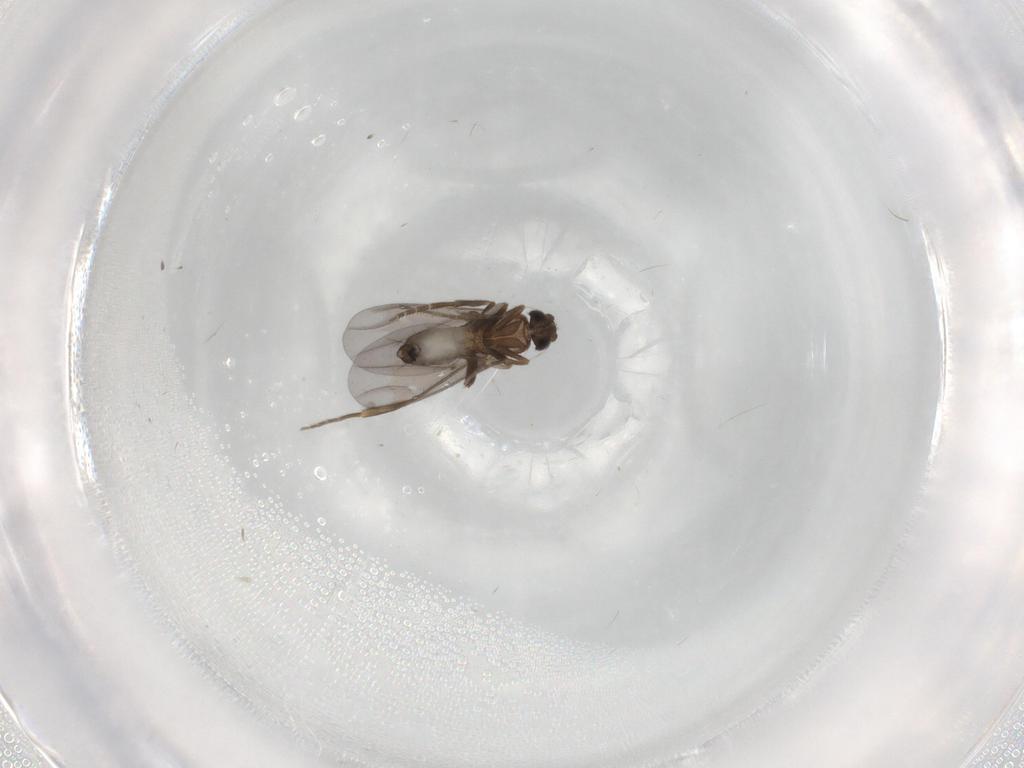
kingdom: Animalia
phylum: Arthropoda
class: Insecta
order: Diptera
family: Phoridae
